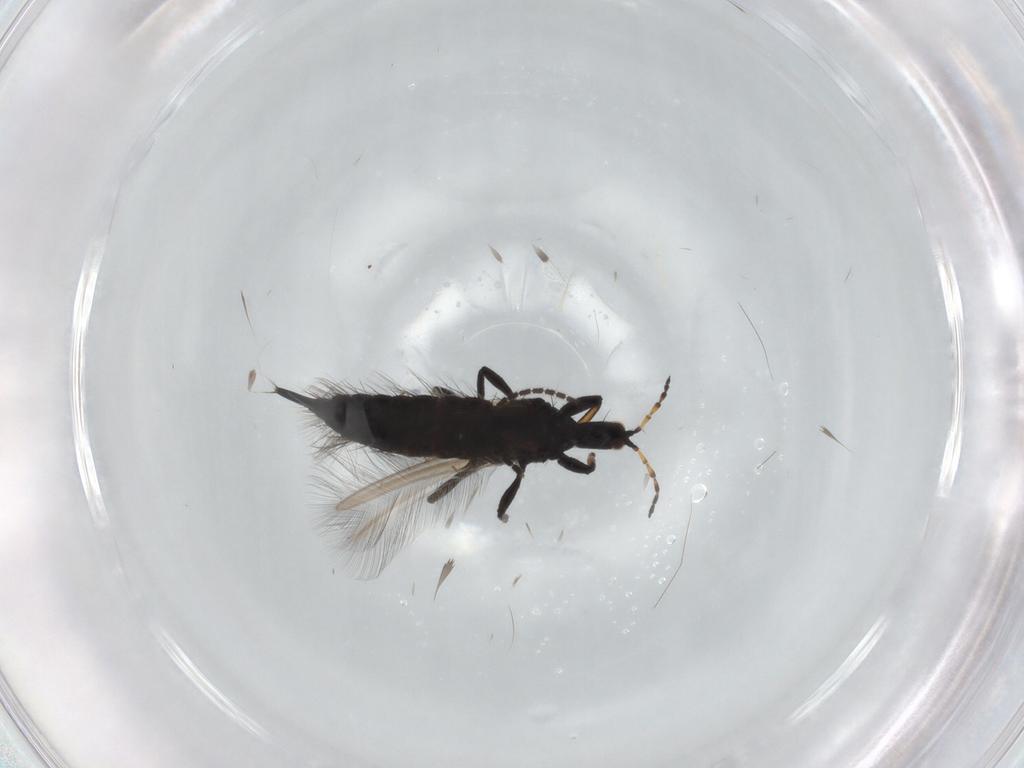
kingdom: Animalia
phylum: Arthropoda
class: Insecta
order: Thysanoptera
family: Phlaeothripidae
